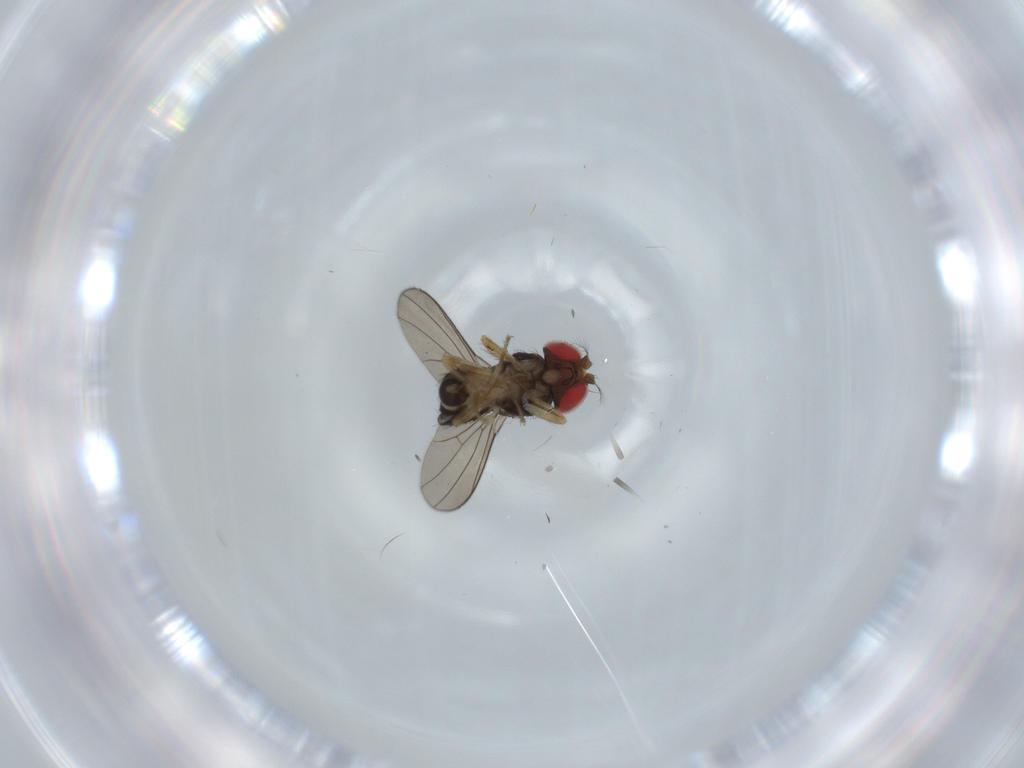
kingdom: Animalia
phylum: Arthropoda
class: Insecta
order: Diptera
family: Drosophilidae
